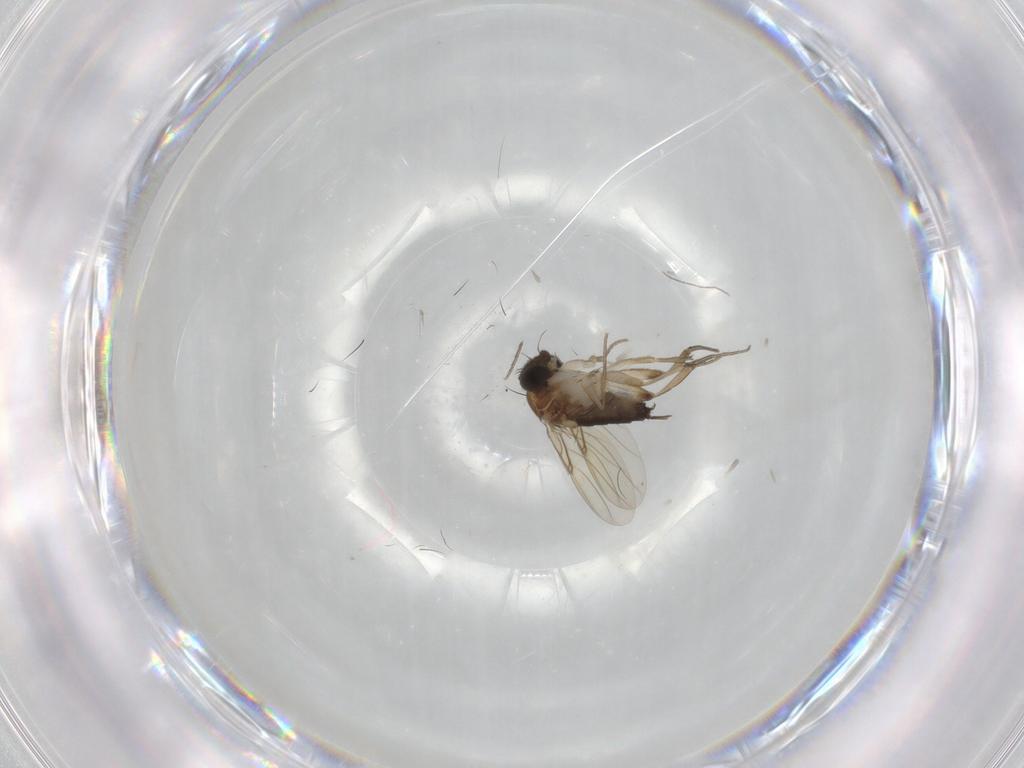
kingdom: Animalia
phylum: Arthropoda
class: Insecta
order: Diptera
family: Phoridae
